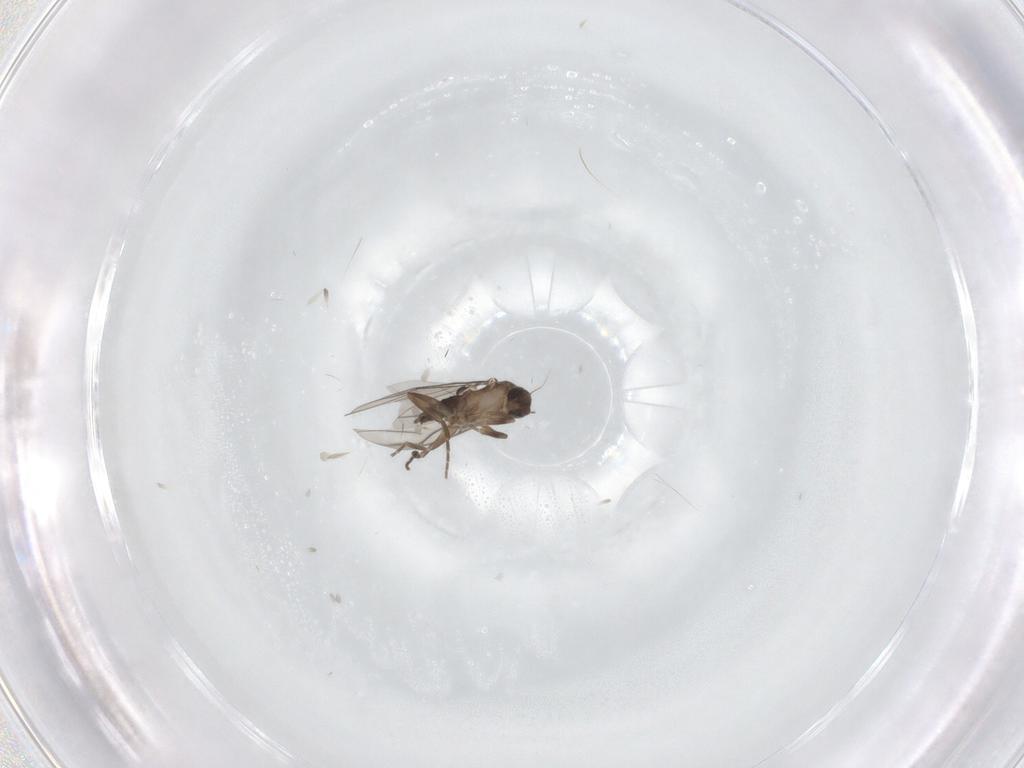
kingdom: Animalia
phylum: Arthropoda
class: Insecta
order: Diptera
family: Phoridae
